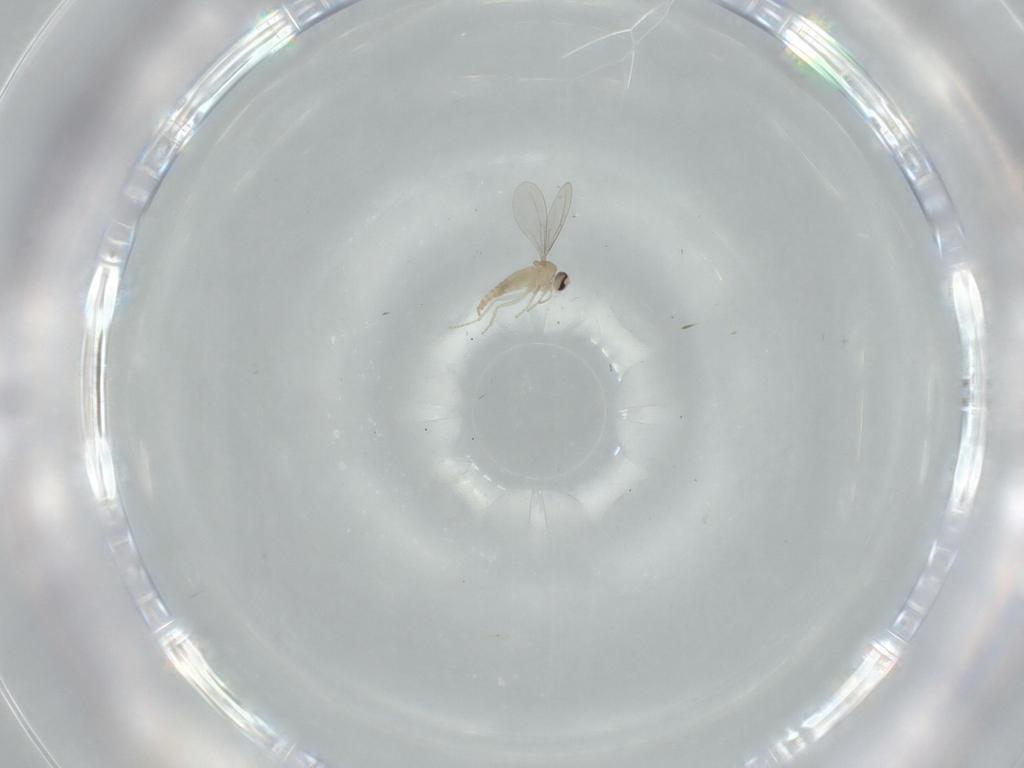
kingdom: Animalia
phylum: Arthropoda
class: Insecta
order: Diptera
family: Cecidomyiidae
